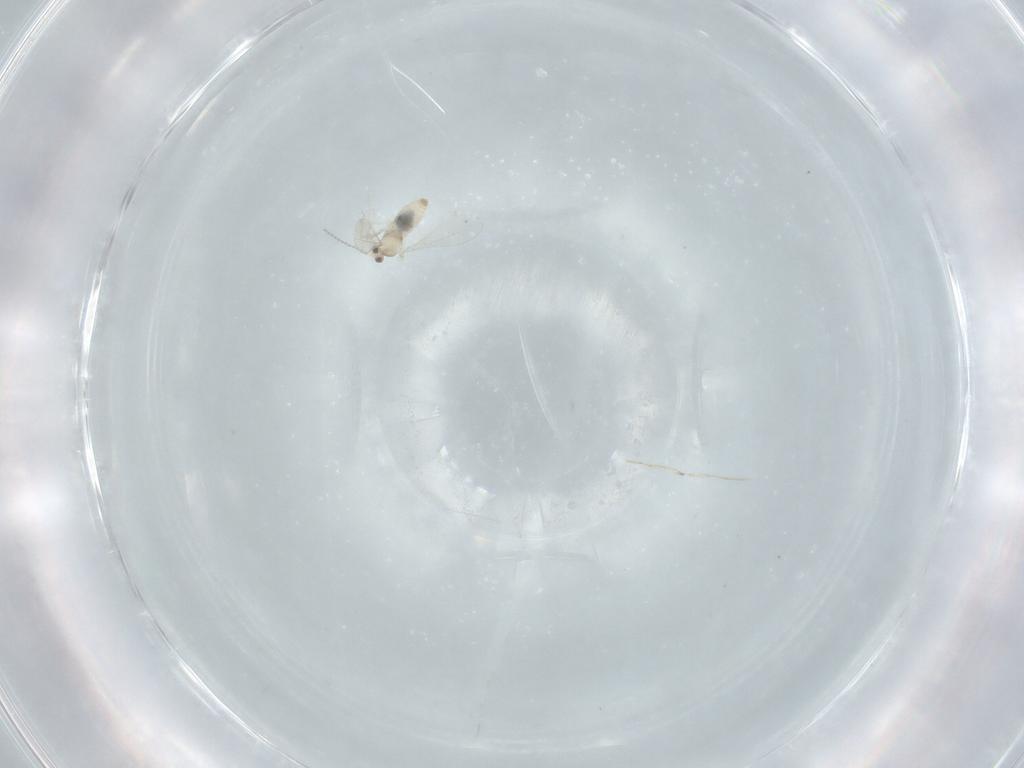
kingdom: Animalia
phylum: Arthropoda
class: Insecta
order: Diptera
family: Cecidomyiidae
